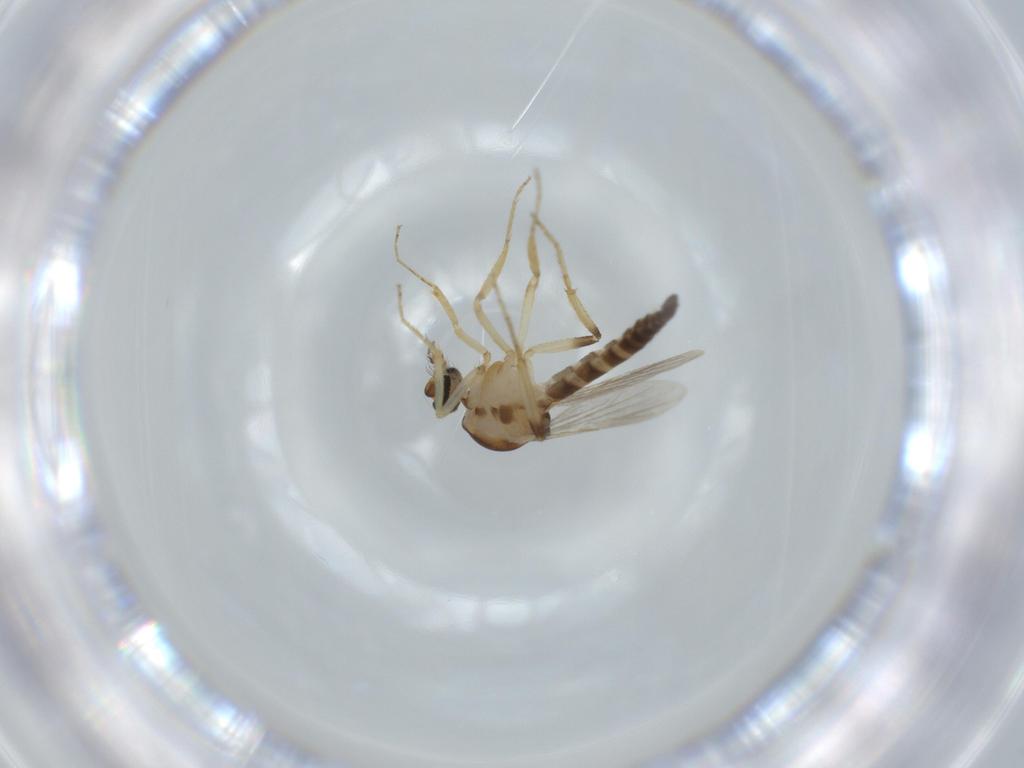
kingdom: Animalia
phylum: Arthropoda
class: Insecta
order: Diptera
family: Ceratopogonidae
